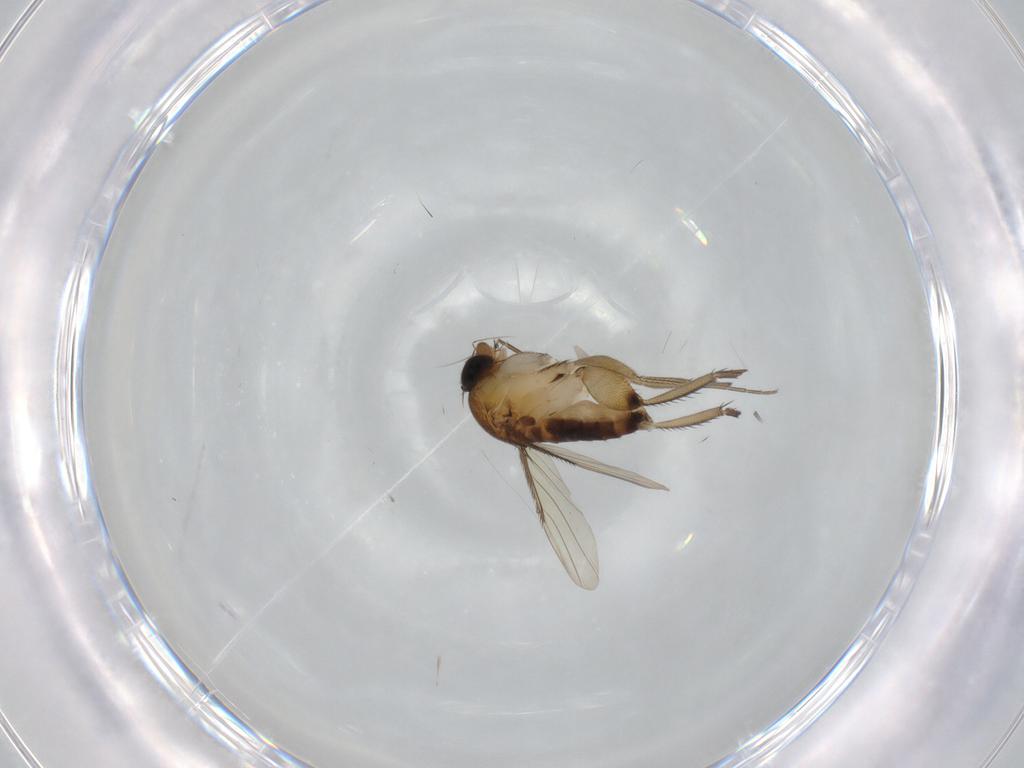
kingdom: Animalia
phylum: Arthropoda
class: Insecta
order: Diptera
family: Phoridae
